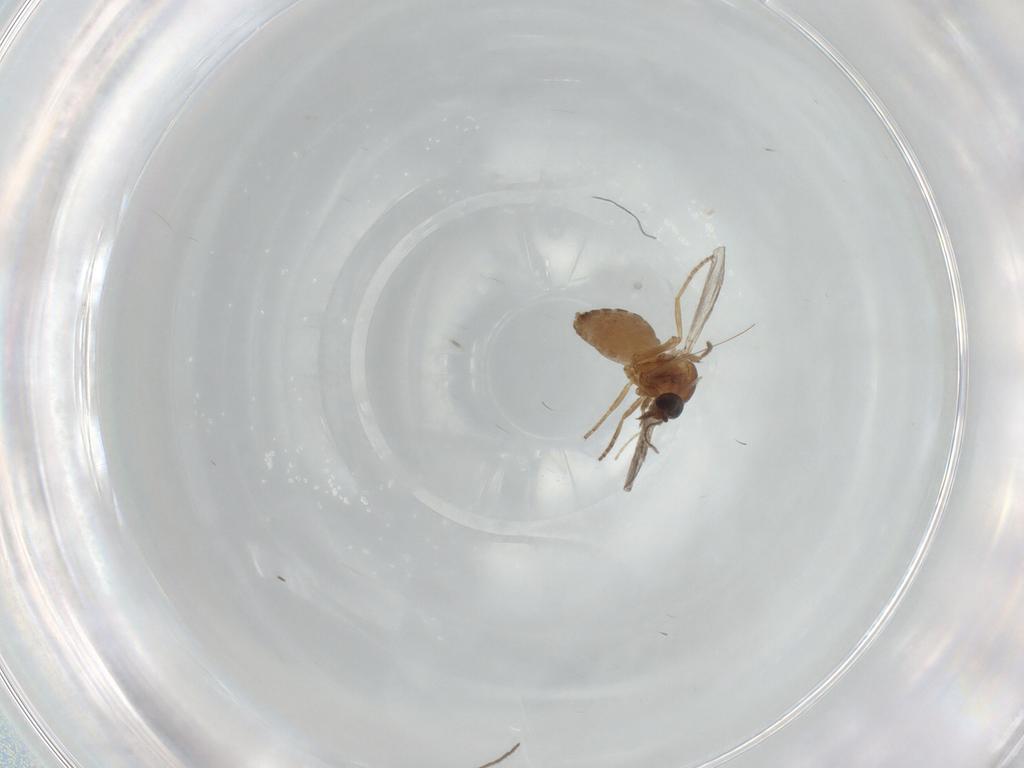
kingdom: Animalia
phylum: Arthropoda
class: Insecta
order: Diptera
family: Ceratopogonidae
